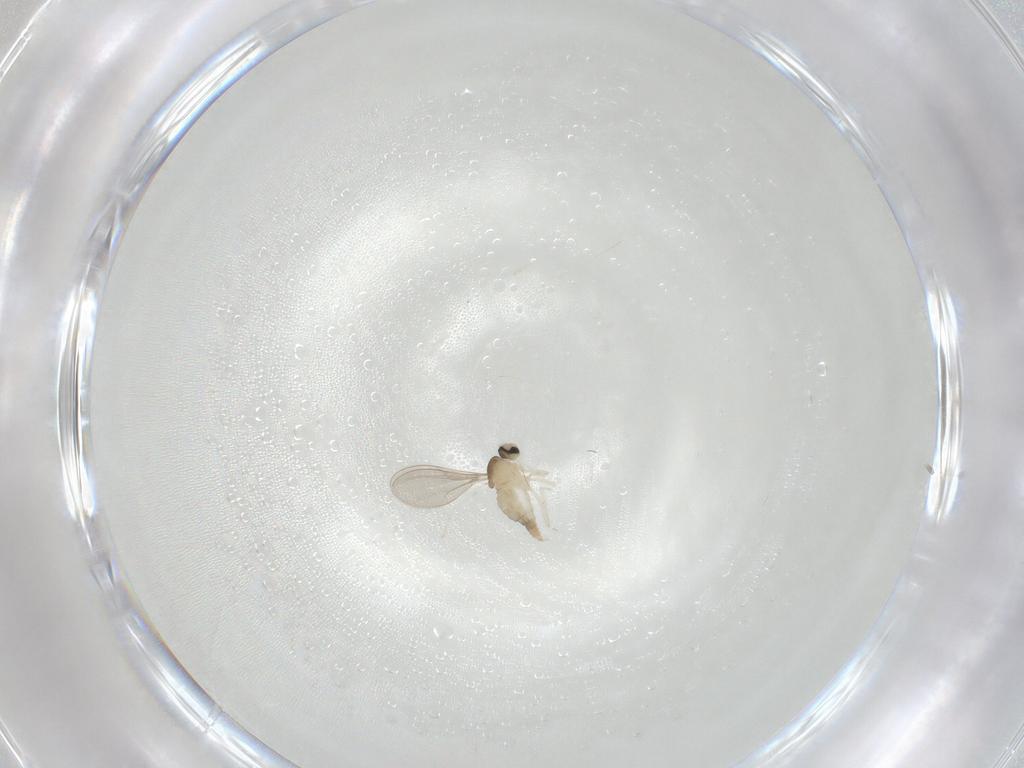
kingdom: Animalia
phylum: Arthropoda
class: Insecta
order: Diptera
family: Cecidomyiidae
